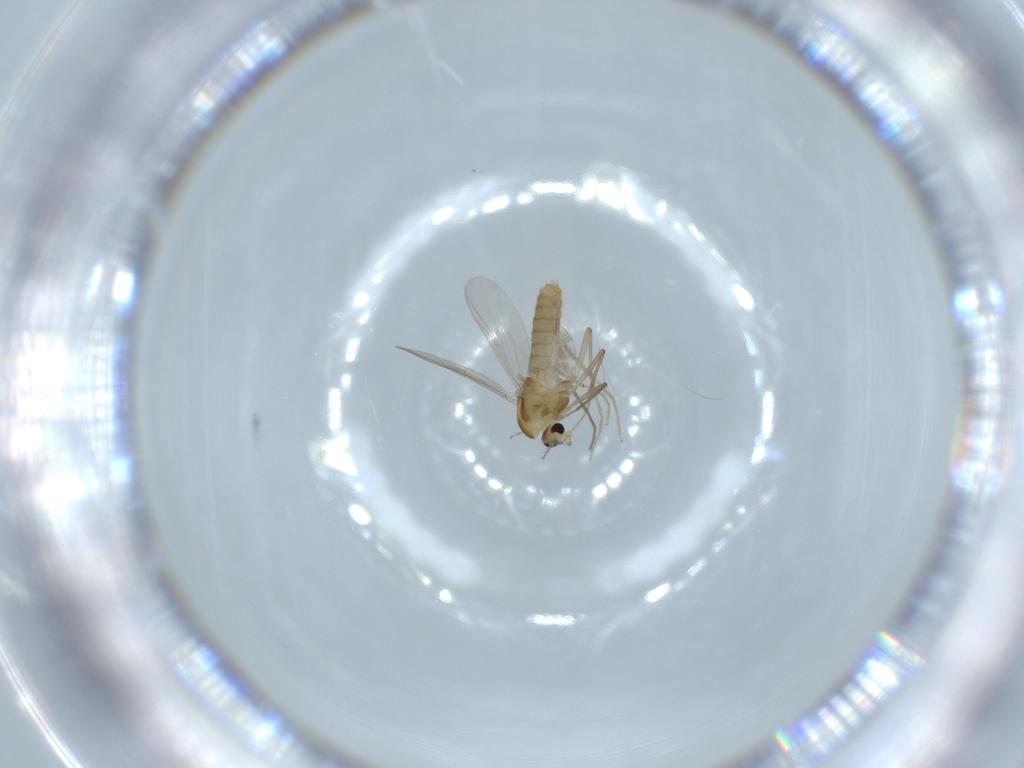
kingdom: Animalia
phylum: Arthropoda
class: Insecta
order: Diptera
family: Chironomidae
